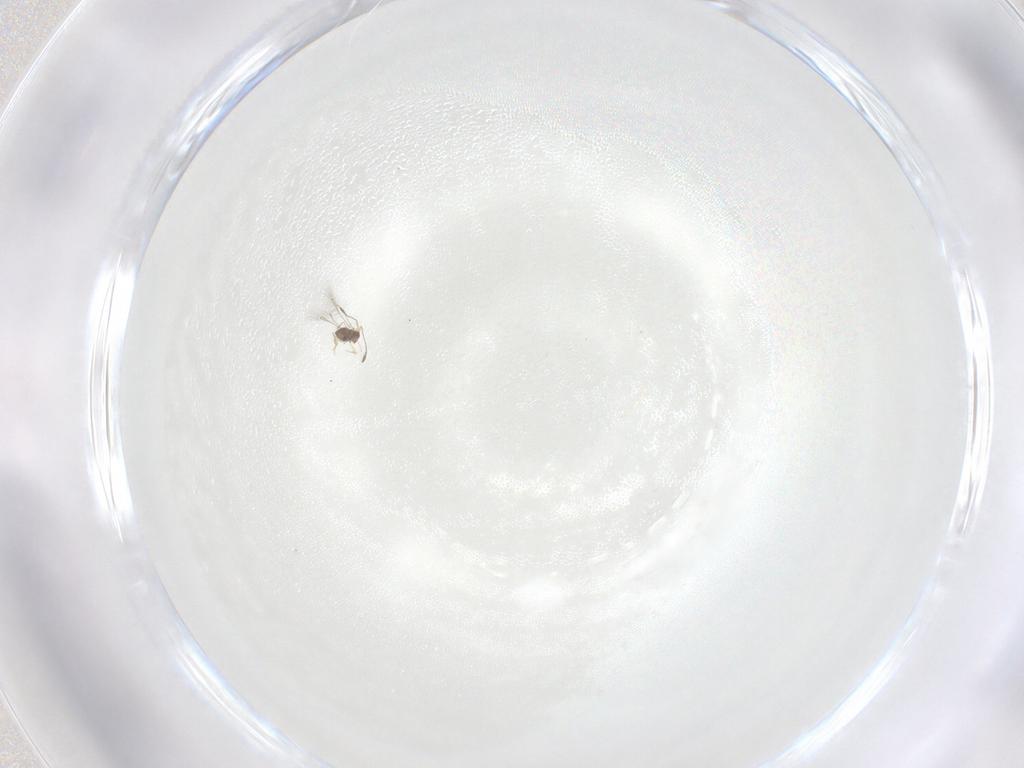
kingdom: Animalia
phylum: Arthropoda
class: Insecta
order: Hymenoptera
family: Mymaridae
